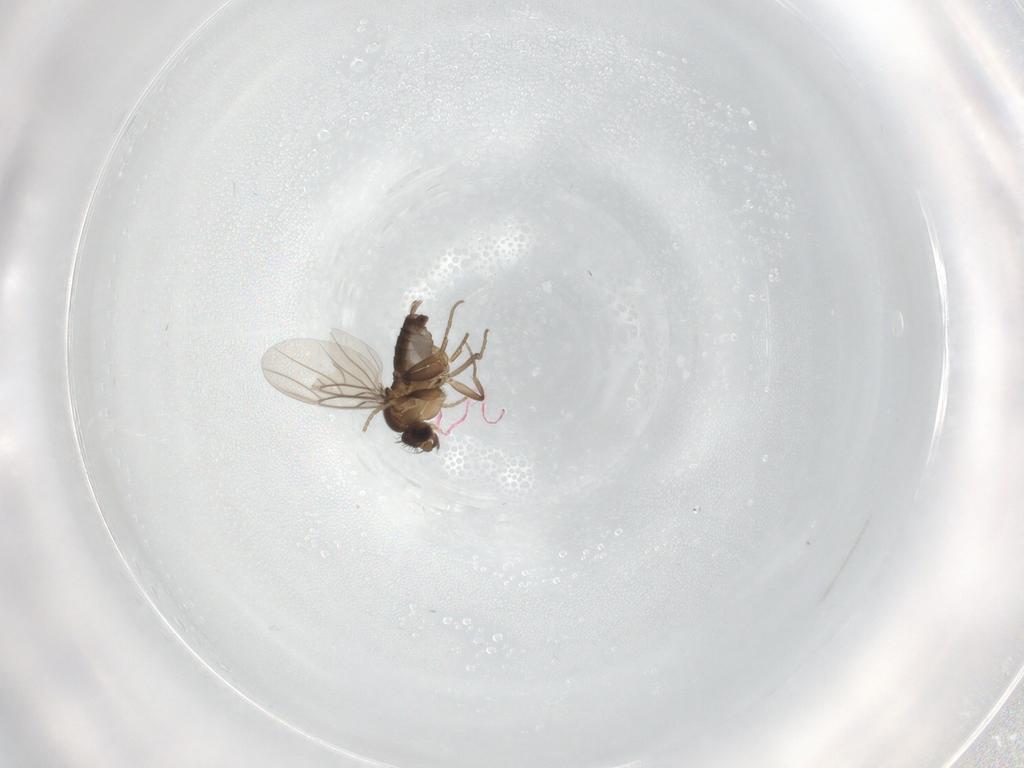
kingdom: Animalia
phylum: Arthropoda
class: Insecta
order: Diptera
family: Phoridae
